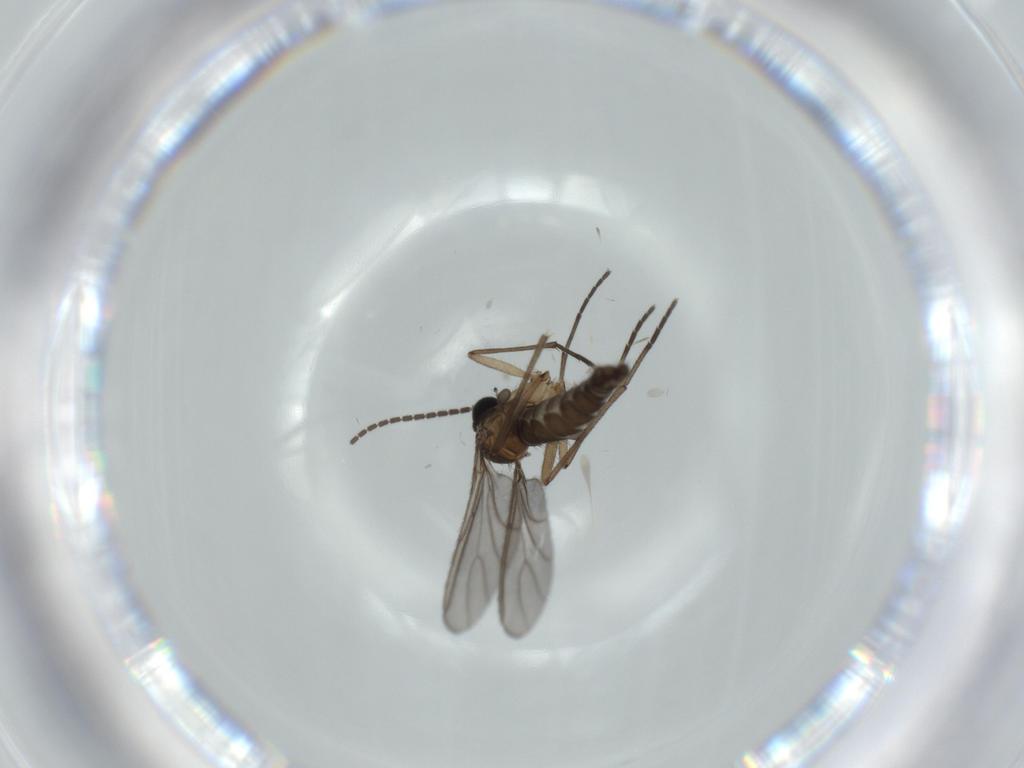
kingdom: Animalia
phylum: Arthropoda
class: Insecta
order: Diptera
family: Sciaridae
